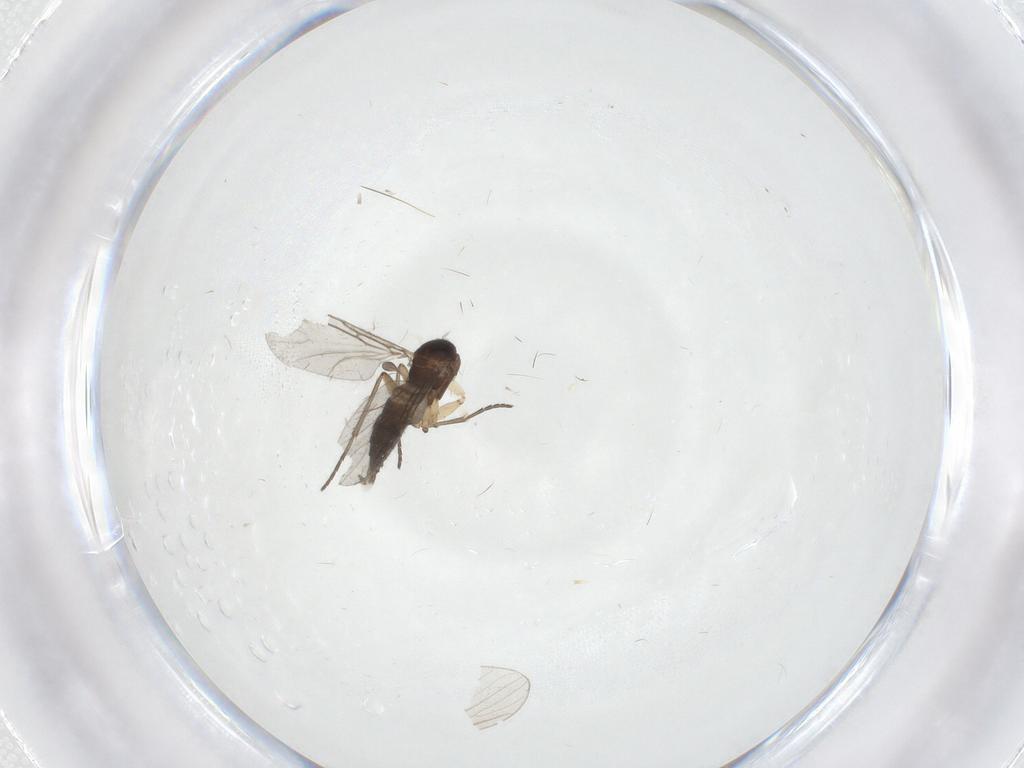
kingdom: Animalia
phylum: Arthropoda
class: Insecta
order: Diptera
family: Sciaridae
